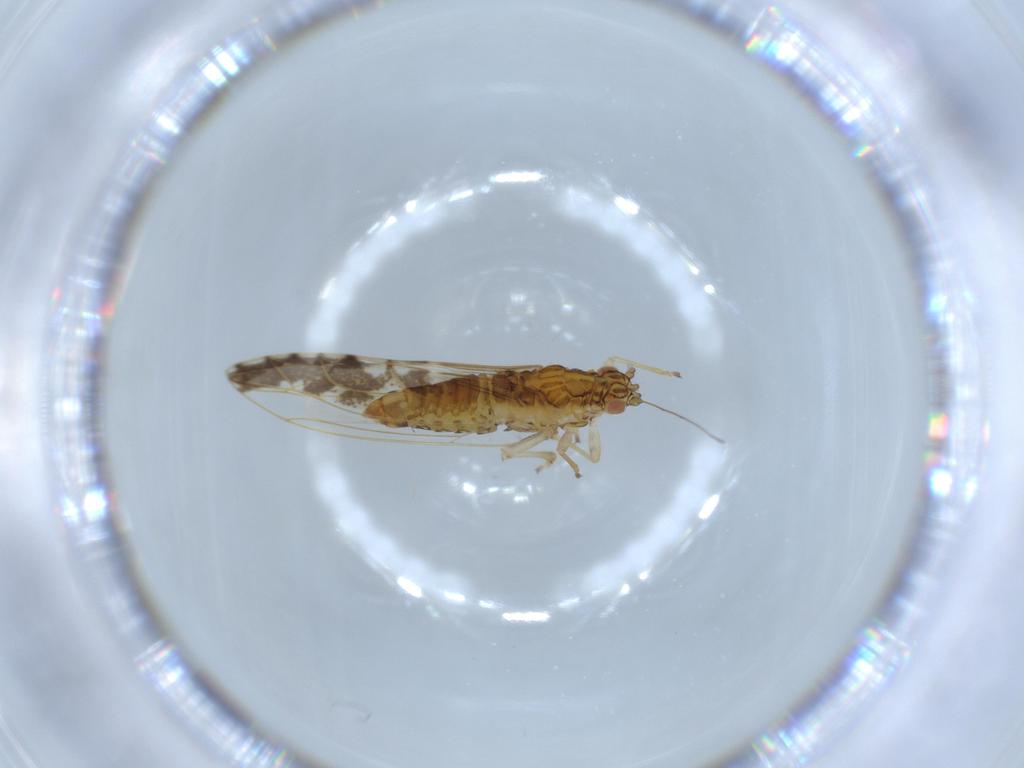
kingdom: Animalia
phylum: Arthropoda
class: Insecta
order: Hemiptera
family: Triozidae
